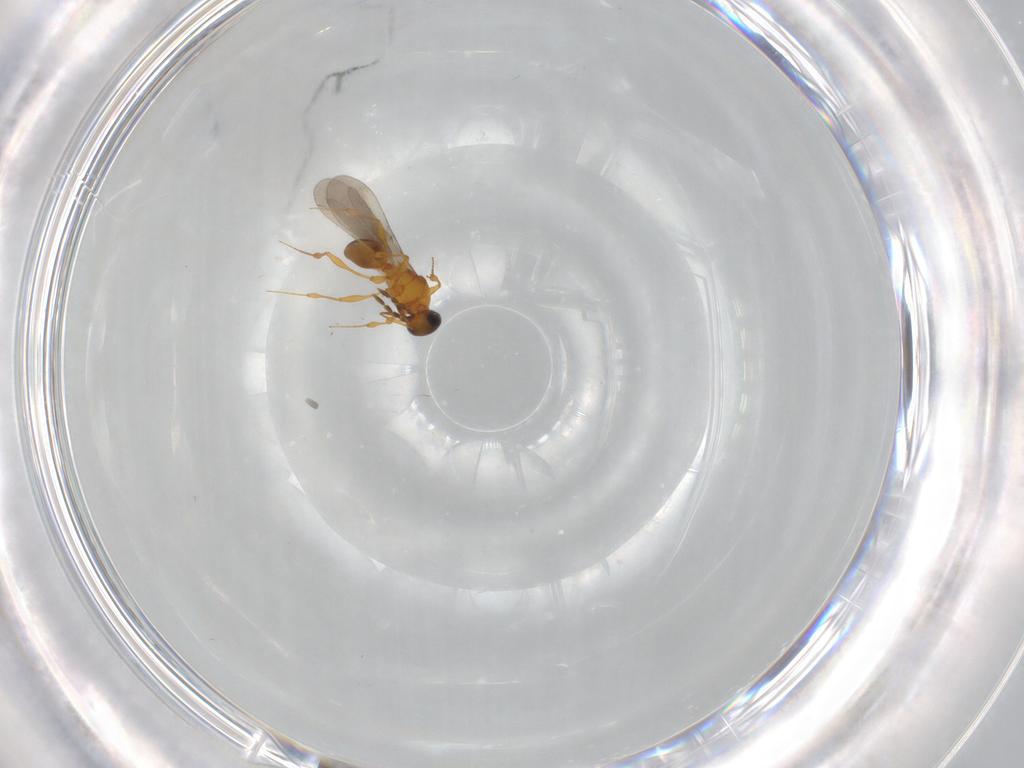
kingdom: Animalia
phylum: Arthropoda
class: Insecta
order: Hymenoptera
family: Platygastridae
